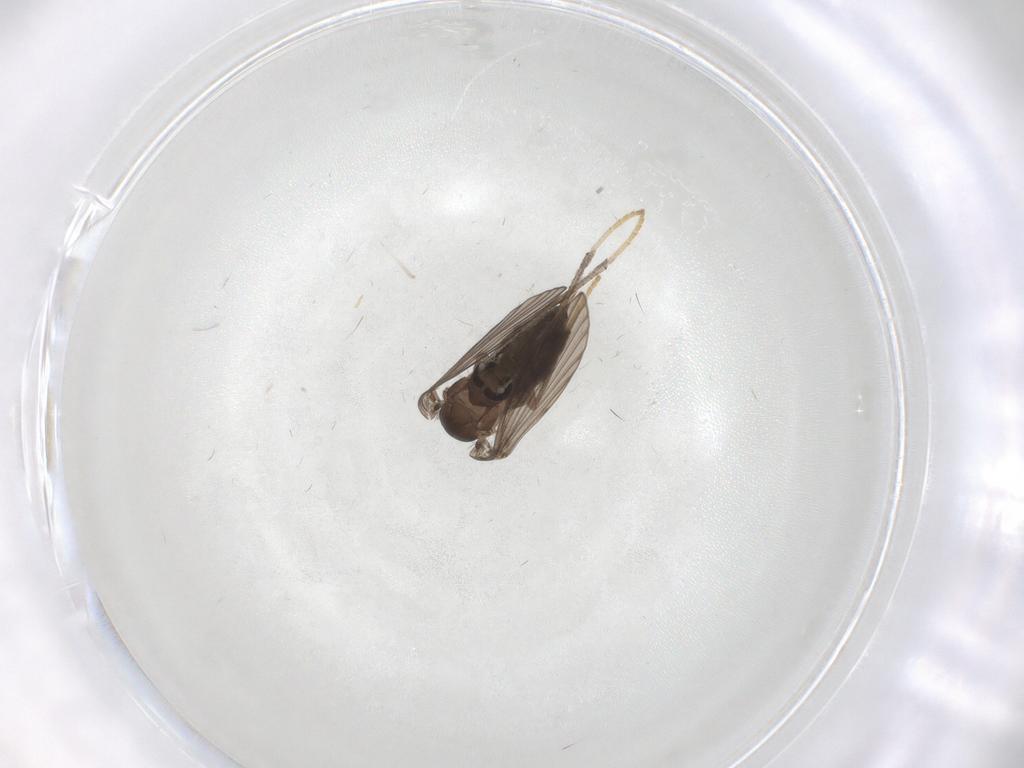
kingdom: Animalia
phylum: Arthropoda
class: Insecta
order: Diptera
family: Psychodidae
